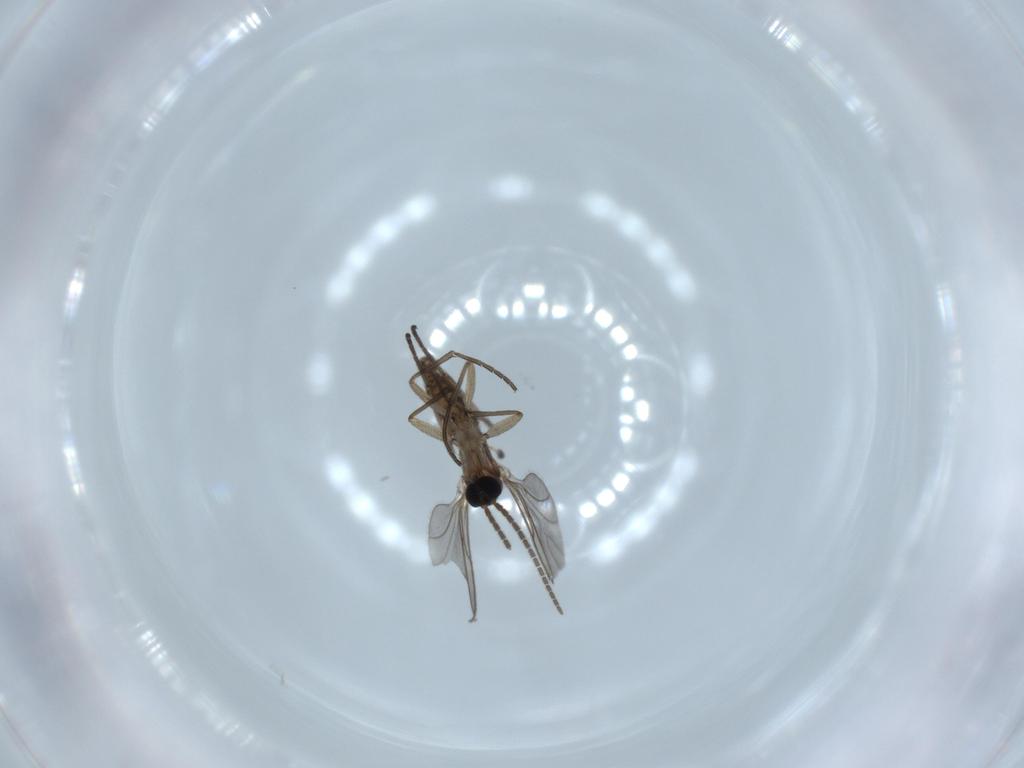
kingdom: Animalia
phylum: Arthropoda
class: Insecta
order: Diptera
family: Sciaridae
